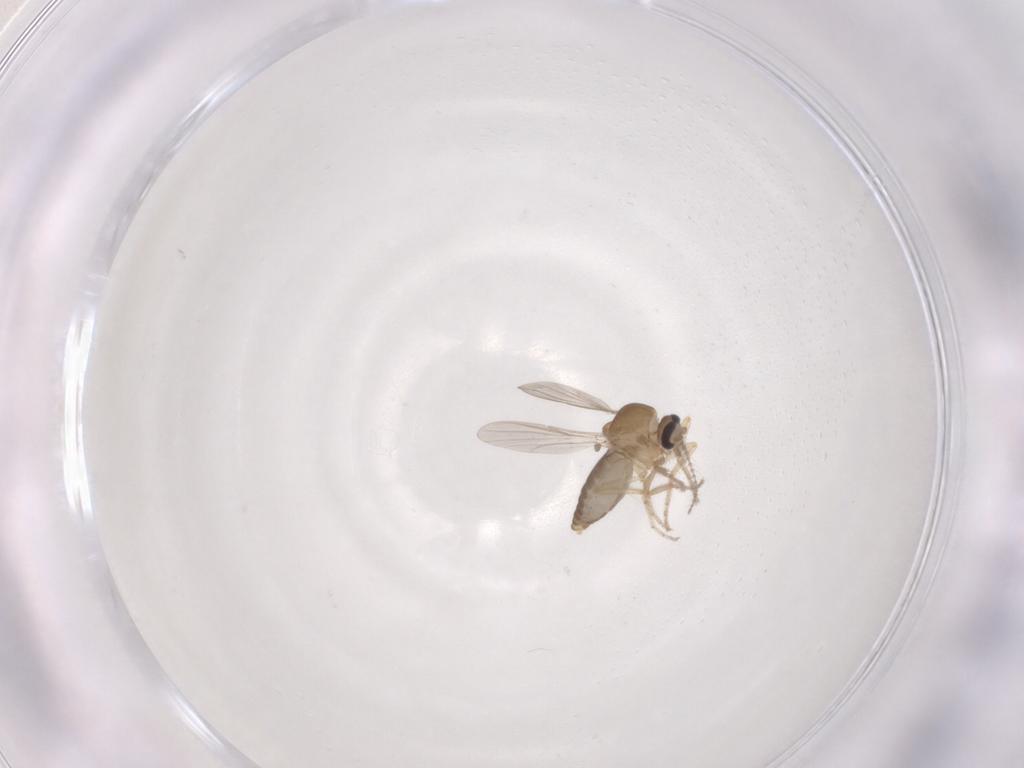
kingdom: Animalia
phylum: Arthropoda
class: Insecta
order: Diptera
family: Ceratopogonidae
